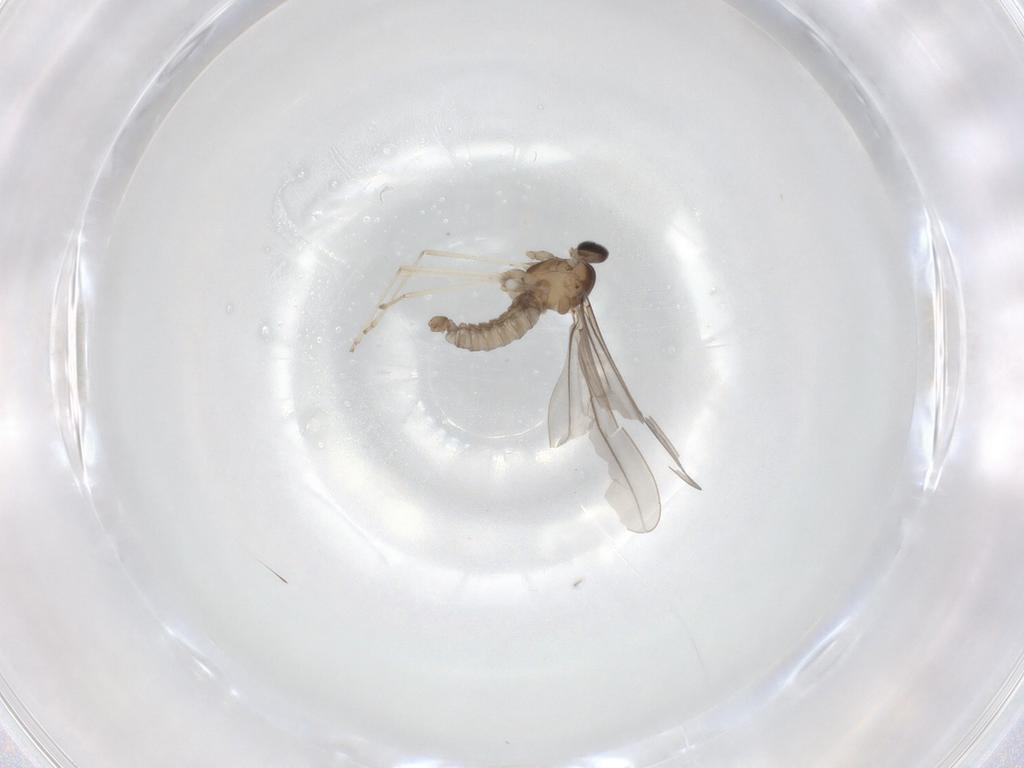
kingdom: Animalia
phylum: Arthropoda
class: Insecta
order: Diptera
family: Cecidomyiidae
